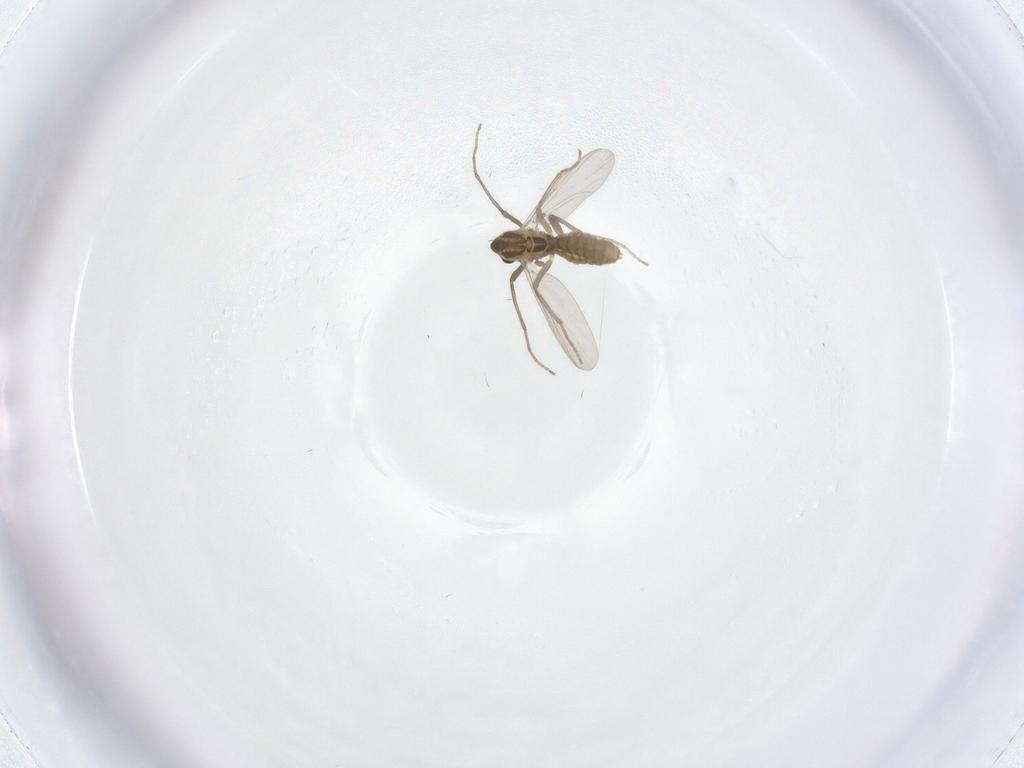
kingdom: Animalia
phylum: Arthropoda
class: Insecta
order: Diptera
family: Chironomidae
